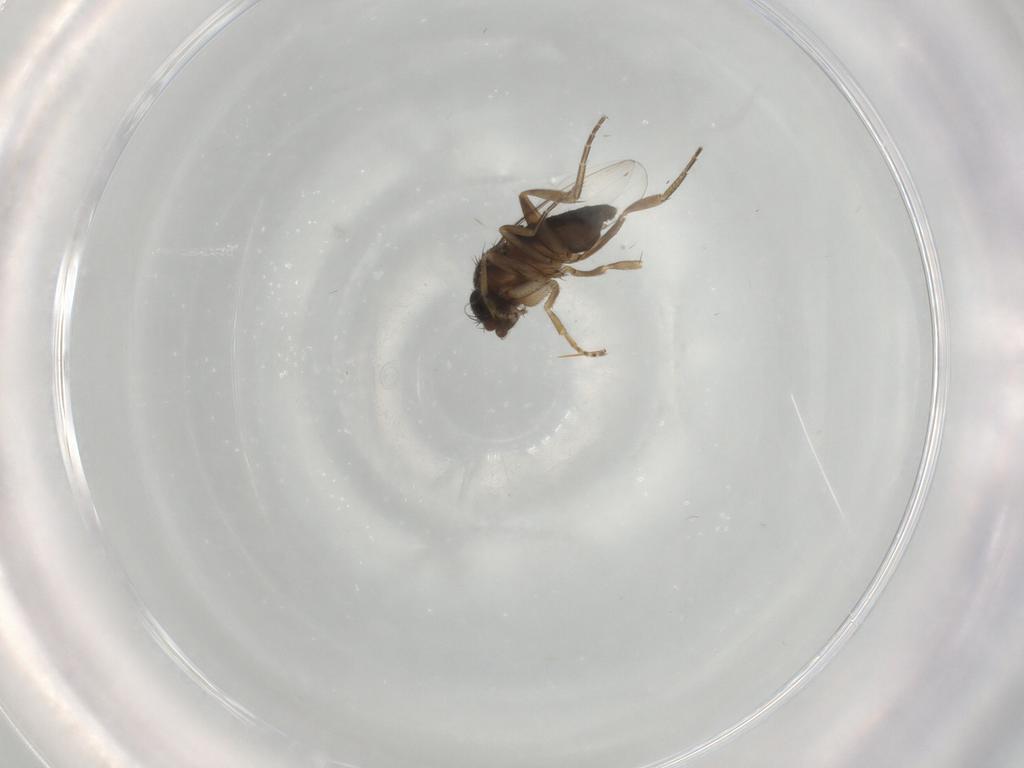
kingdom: Animalia
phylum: Arthropoda
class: Insecta
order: Diptera
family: Phoridae
